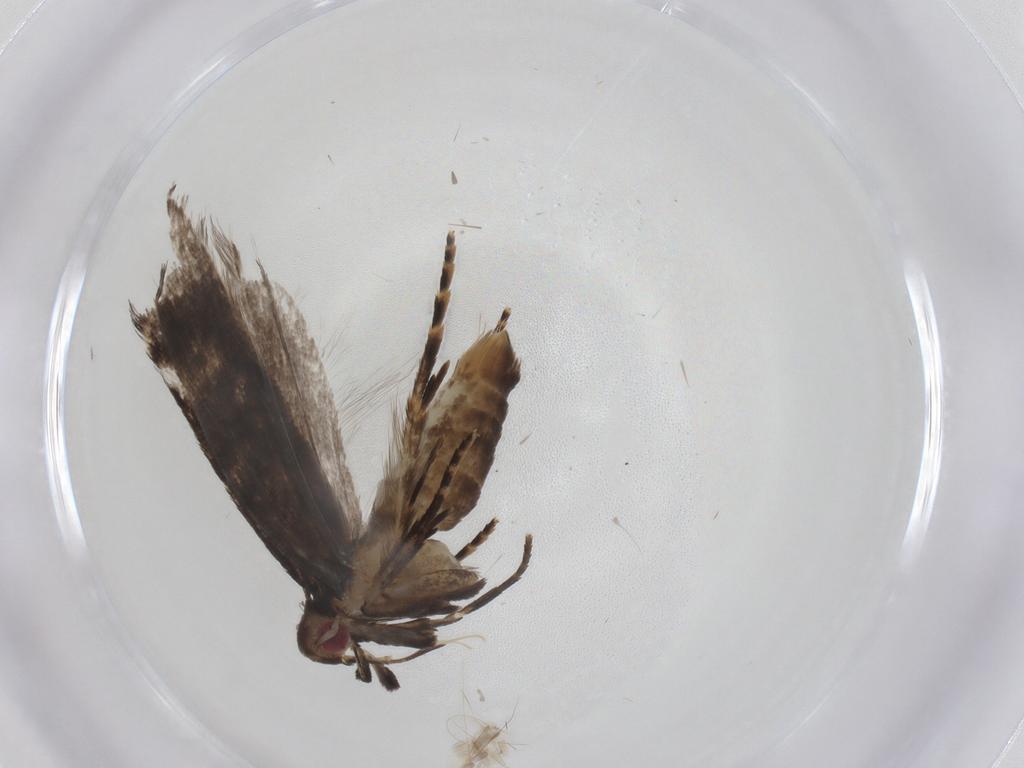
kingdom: Animalia
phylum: Arthropoda
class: Insecta
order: Lepidoptera
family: Gelechiidae
